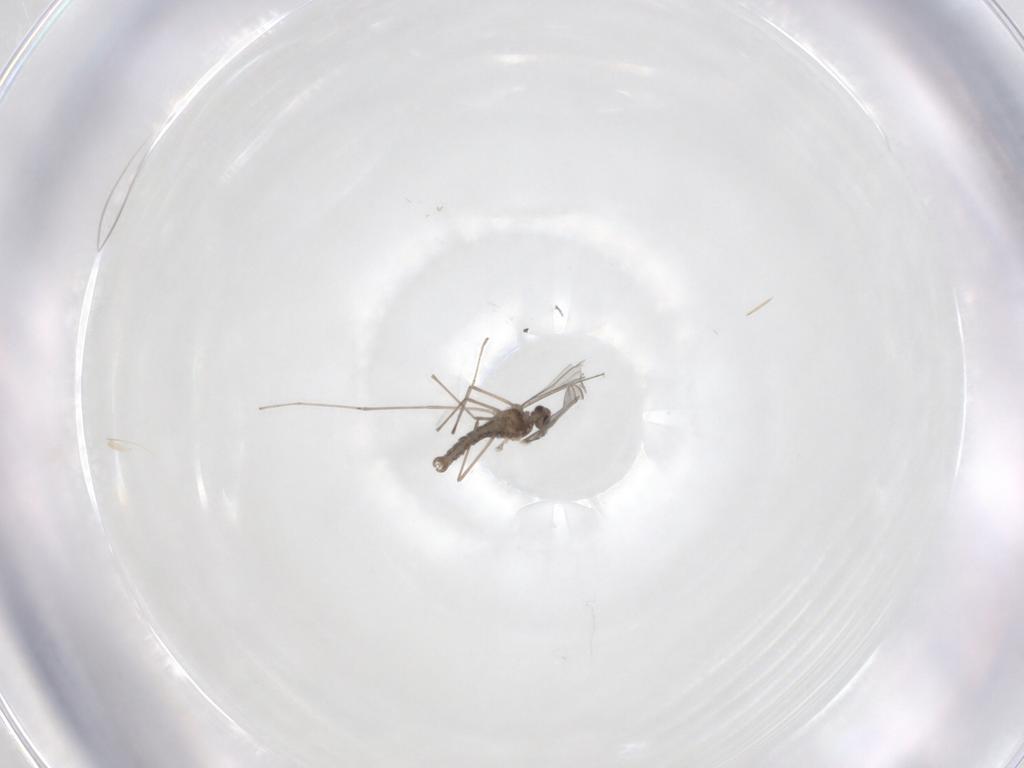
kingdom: Animalia
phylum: Arthropoda
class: Insecta
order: Diptera
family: Cecidomyiidae
